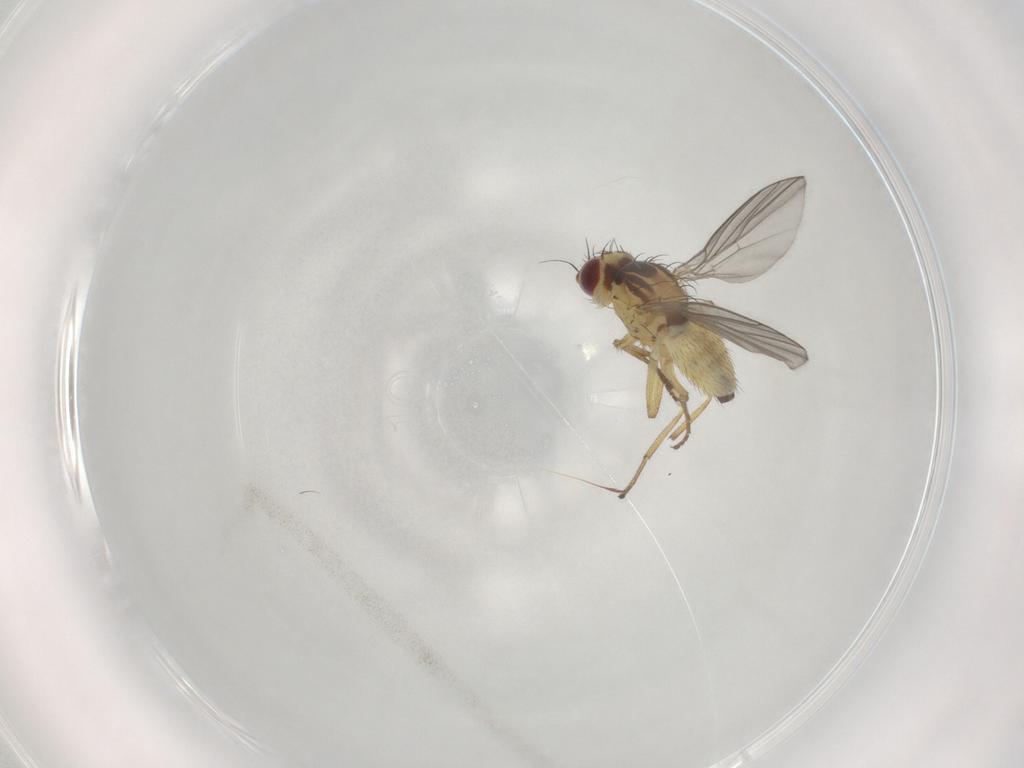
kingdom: Animalia
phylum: Arthropoda
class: Insecta
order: Diptera
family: Agromyzidae
